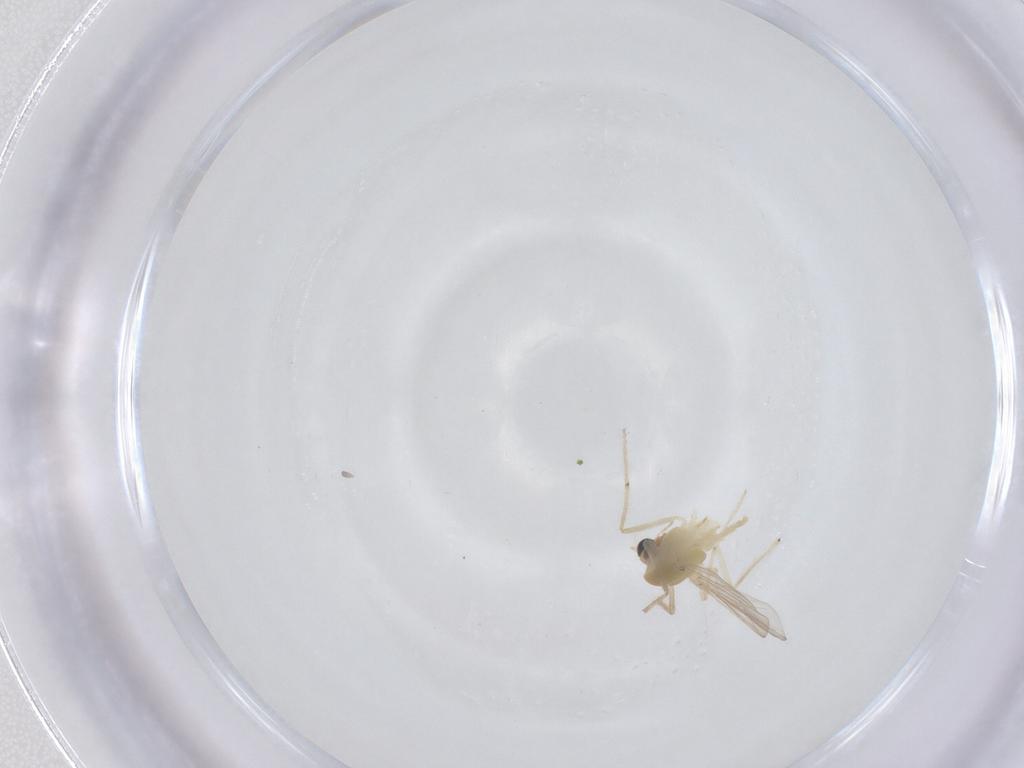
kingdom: Animalia
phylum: Arthropoda
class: Insecta
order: Diptera
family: Chironomidae
